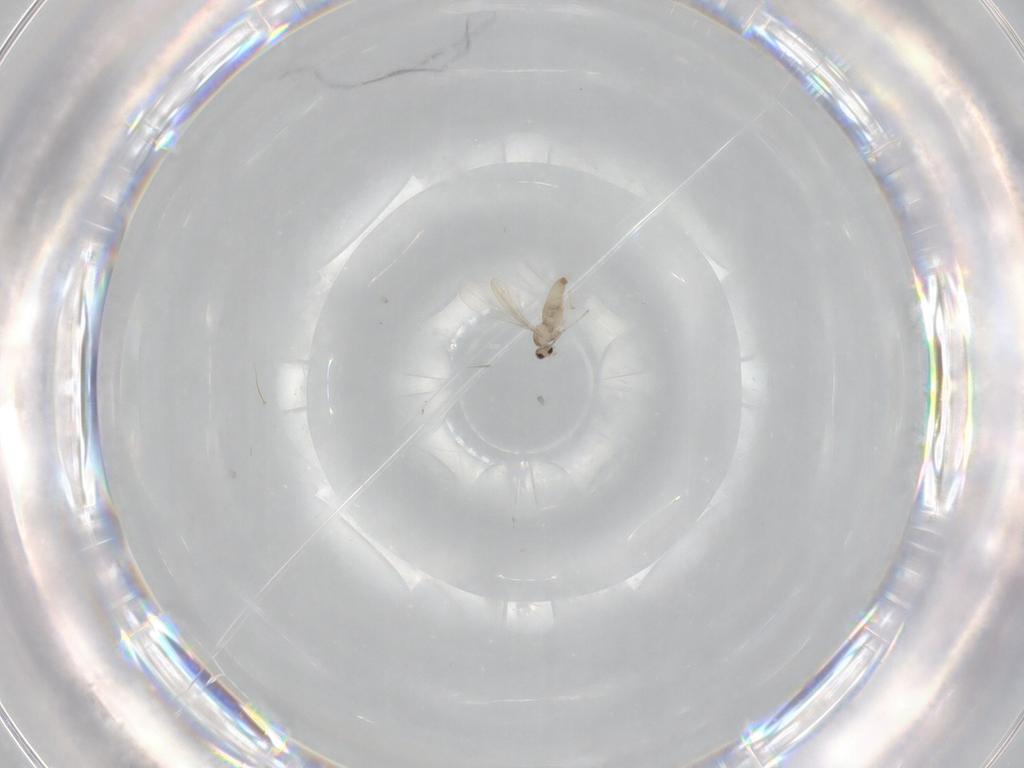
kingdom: Animalia
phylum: Arthropoda
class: Insecta
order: Diptera
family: Cecidomyiidae
